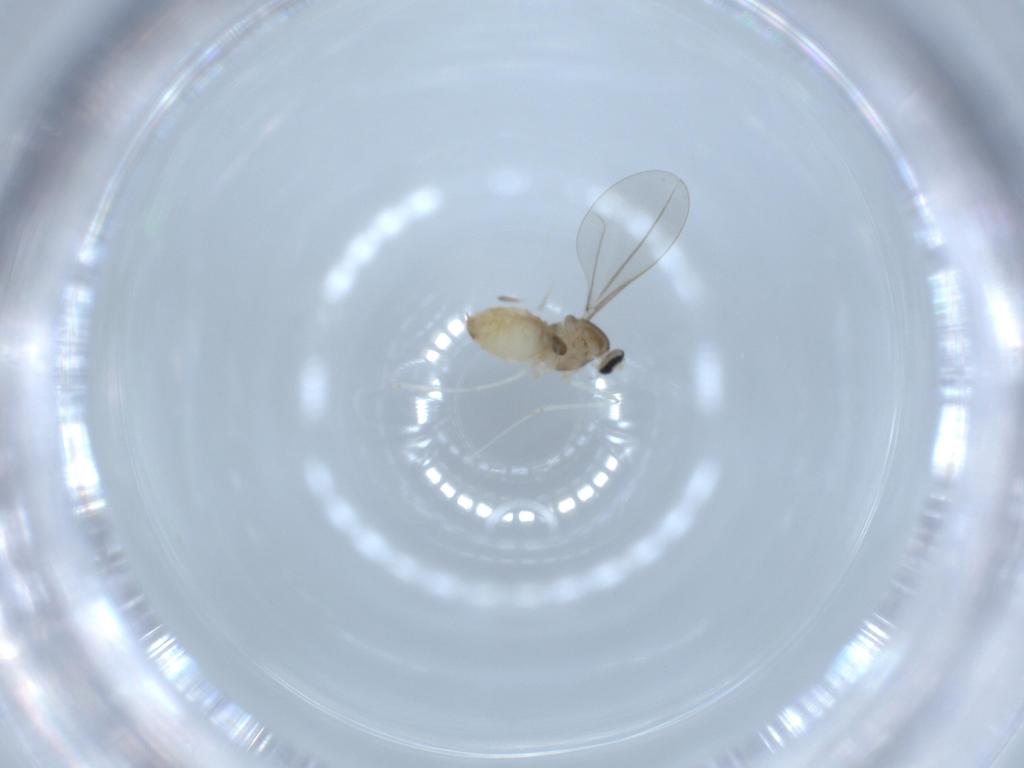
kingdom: Animalia
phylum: Arthropoda
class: Insecta
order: Diptera
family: Cecidomyiidae
